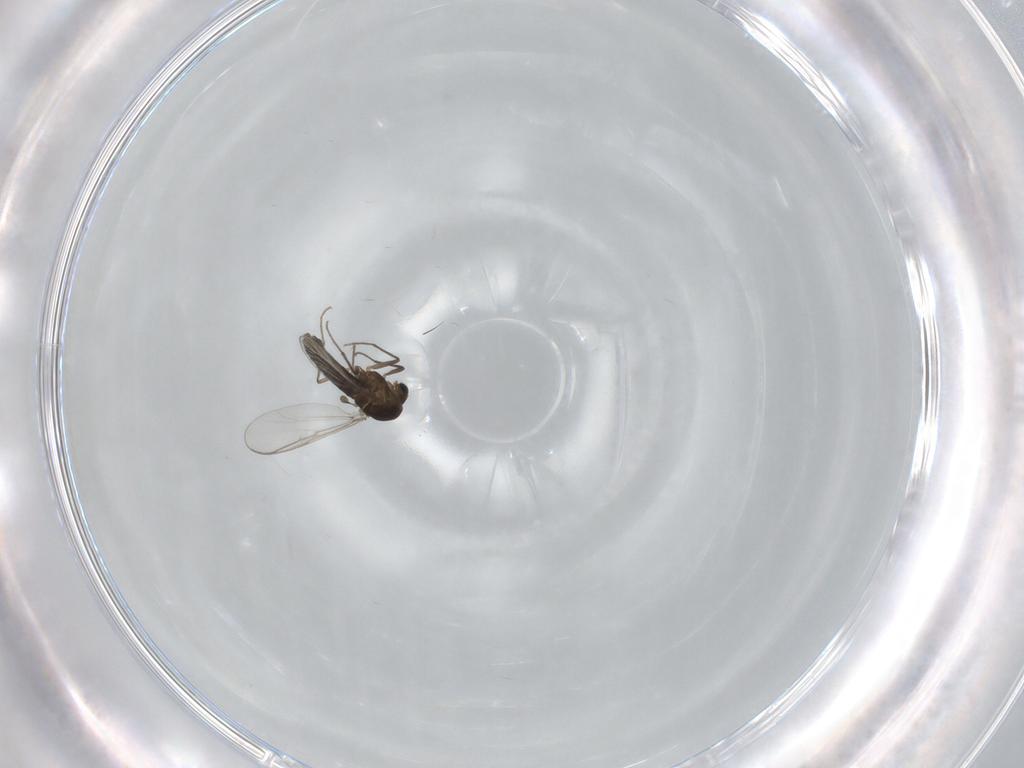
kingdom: Animalia
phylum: Arthropoda
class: Insecta
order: Diptera
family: Chironomidae
